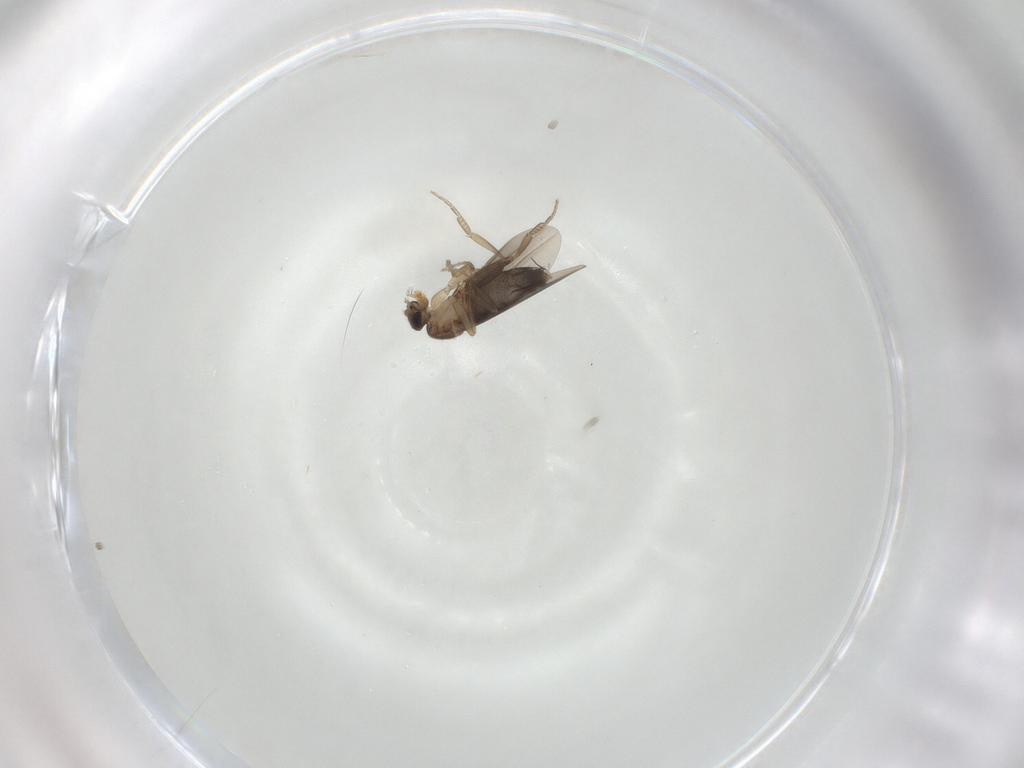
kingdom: Animalia
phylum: Arthropoda
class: Insecta
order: Diptera
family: Phoridae
